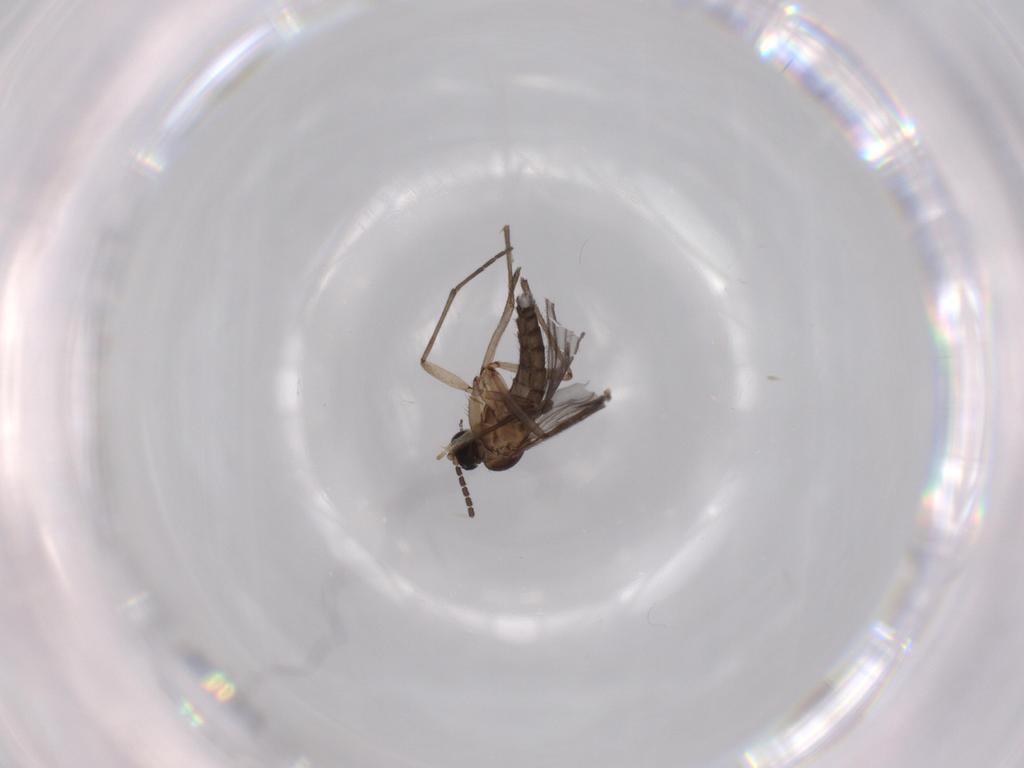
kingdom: Animalia
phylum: Arthropoda
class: Insecta
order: Diptera
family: Ceratopogonidae
